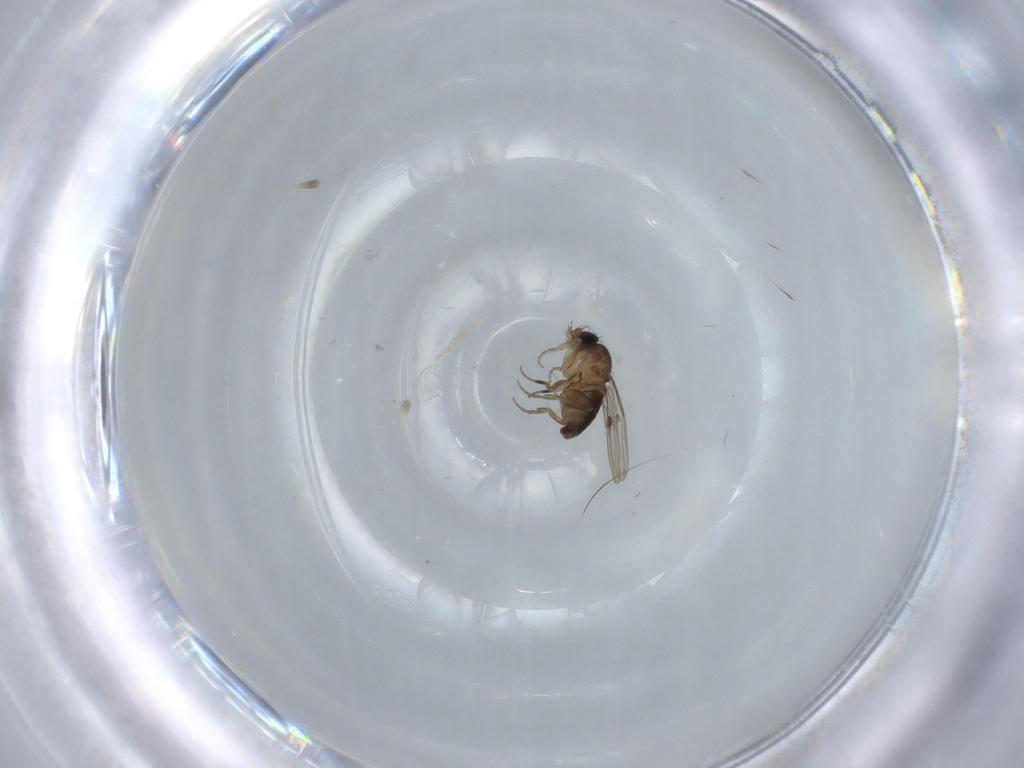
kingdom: Animalia
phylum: Arthropoda
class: Insecta
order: Diptera
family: Phoridae
